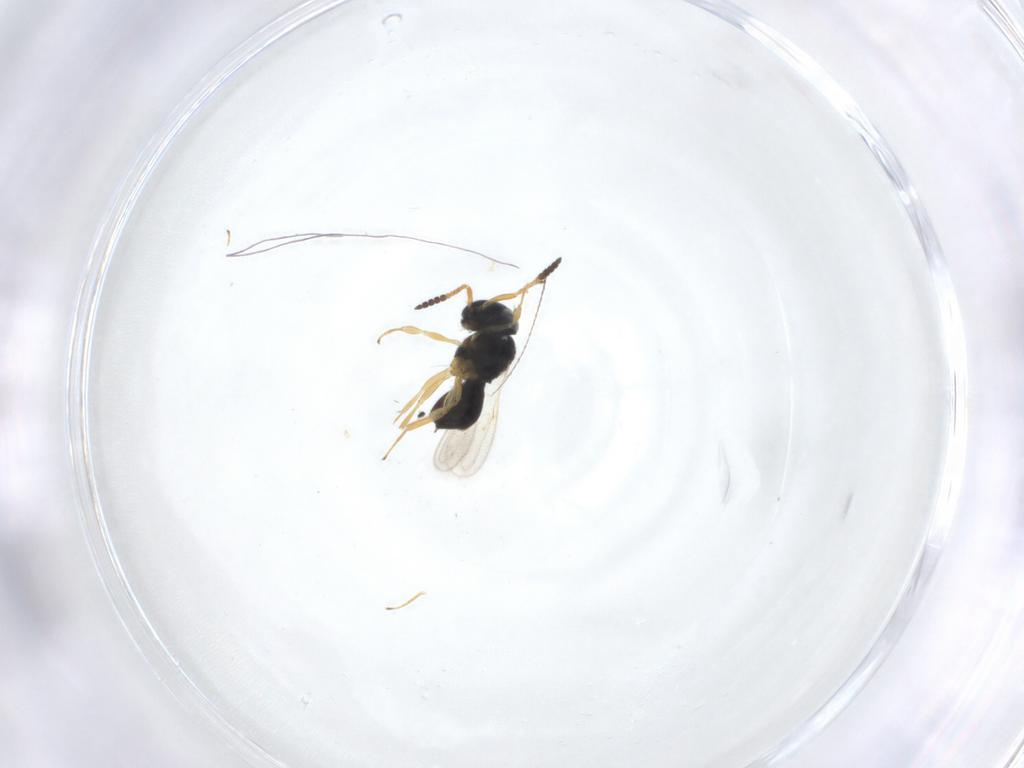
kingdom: Animalia
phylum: Arthropoda
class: Insecta
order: Hymenoptera
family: Scelionidae
